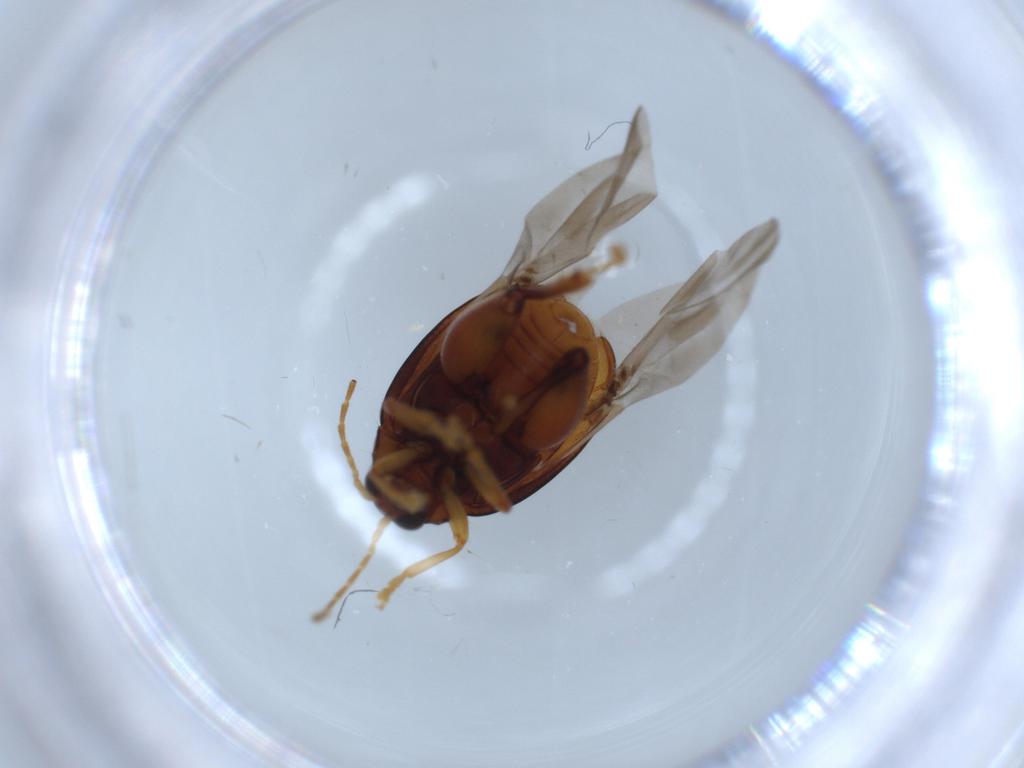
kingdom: Animalia
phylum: Arthropoda
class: Insecta
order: Coleoptera
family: Chrysomelidae
